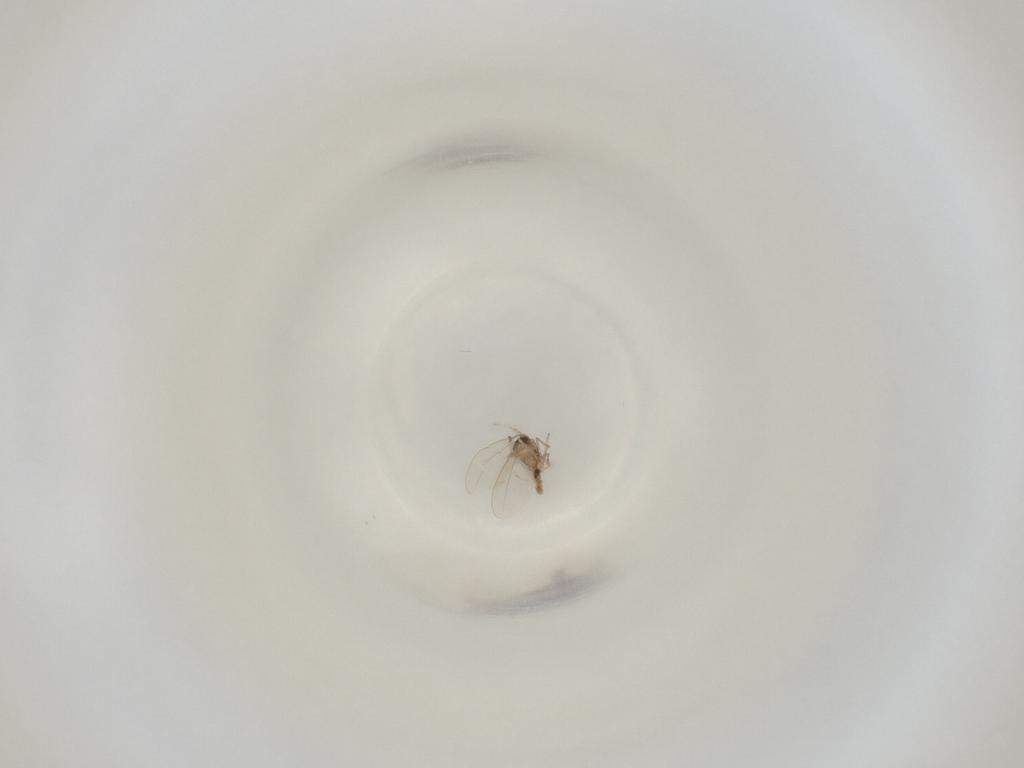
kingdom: Animalia
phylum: Arthropoda
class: Insecta
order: Diptera
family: Cecidomyiidae
